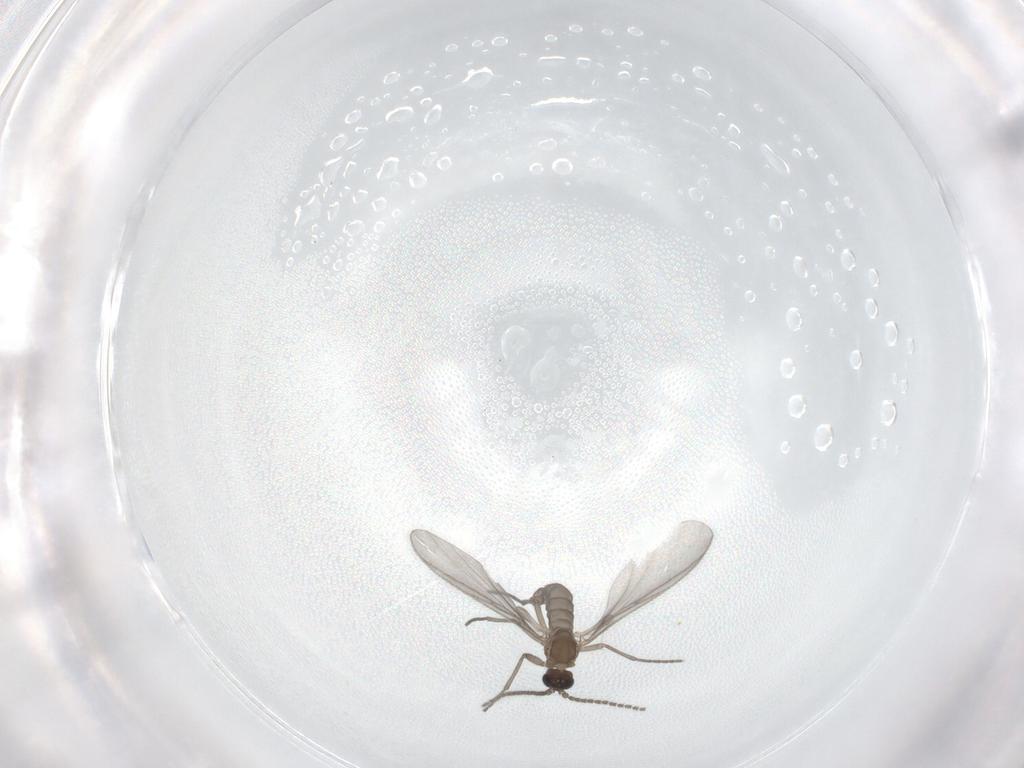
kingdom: Animalia
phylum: Arthropoda
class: Insecta
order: Diptera
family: Sciaridae
